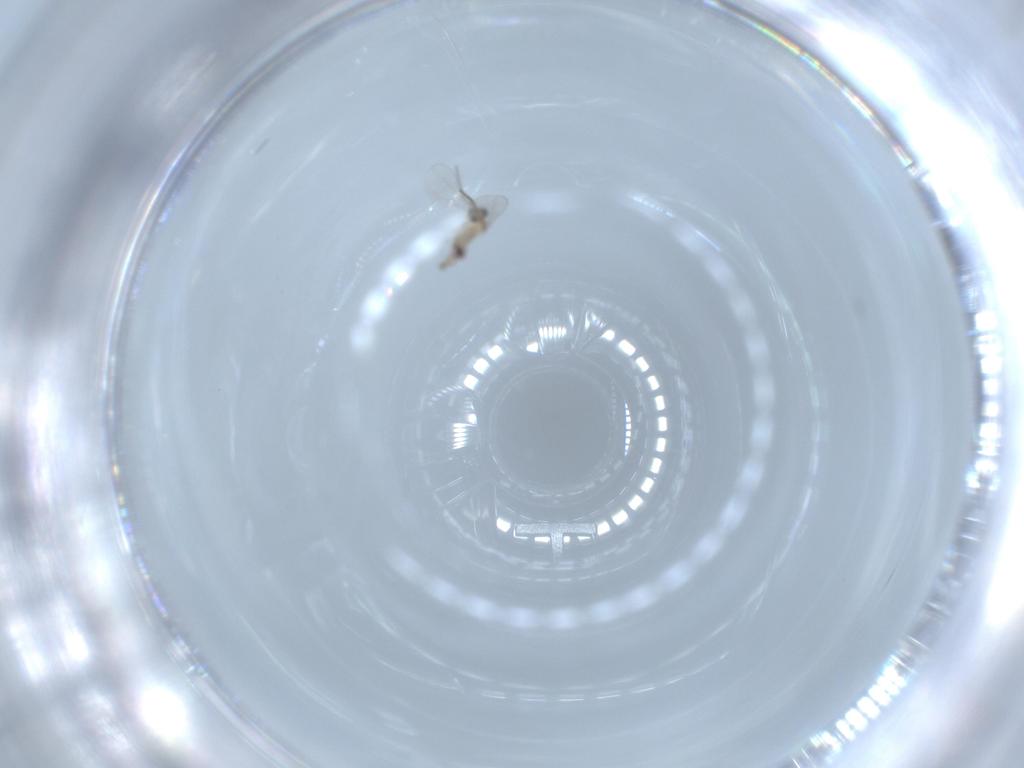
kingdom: Animalia
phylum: Arthropoda
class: Insecta
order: Diptera
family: Cecidomyiidae
